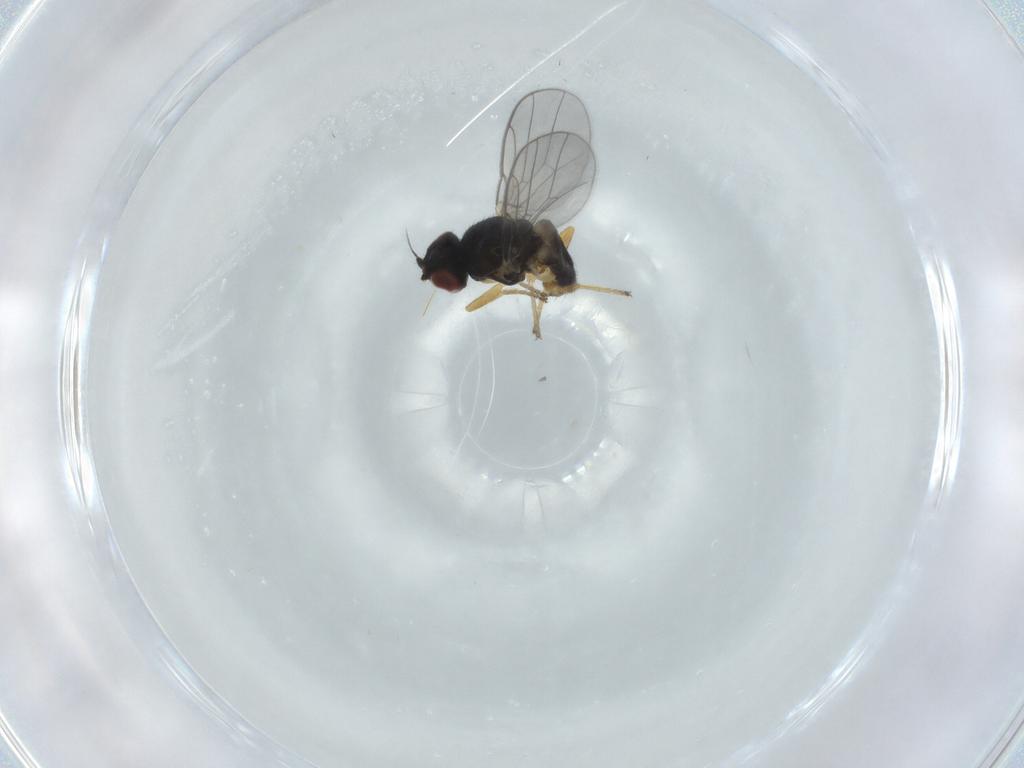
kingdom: Animalia
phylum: Arthropoda
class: Insecta
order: Diptera
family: Chloropidae
